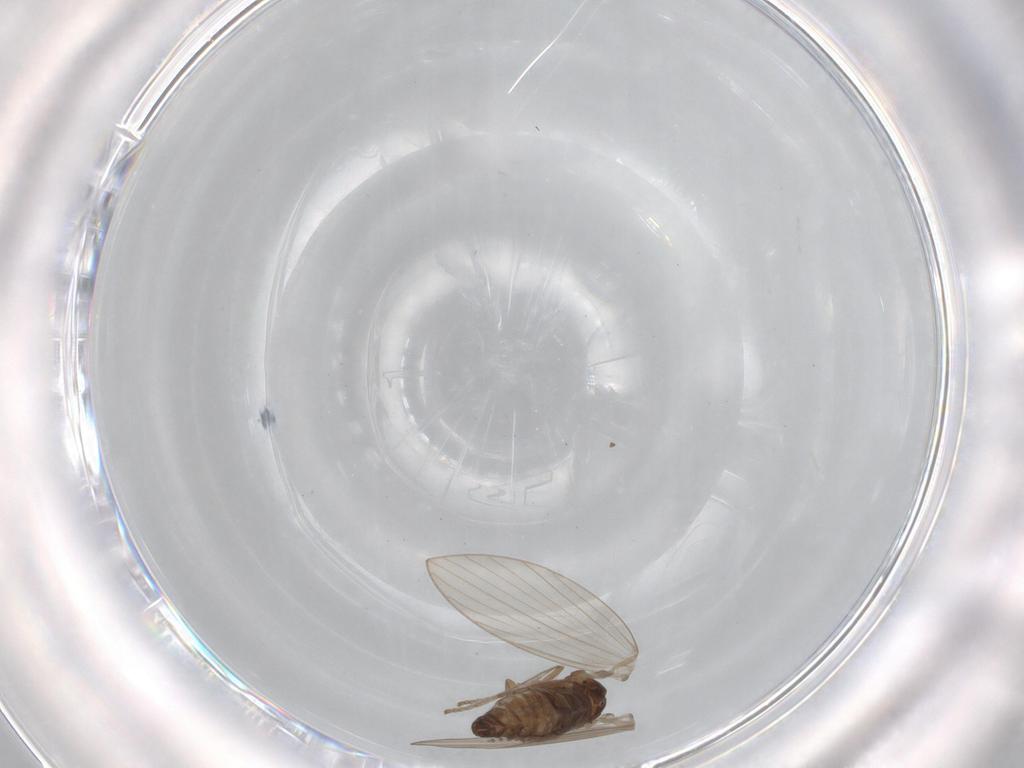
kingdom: Animalia
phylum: Arthropoda
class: Insecta
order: Diptera
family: Psychodidae
